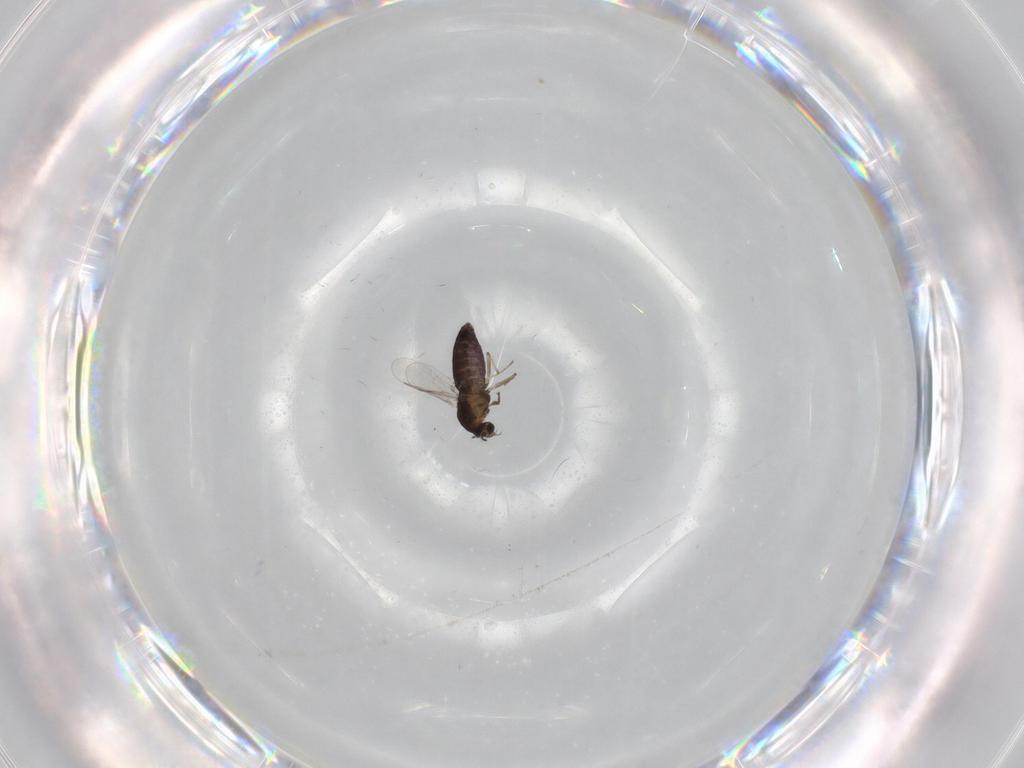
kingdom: Animalia
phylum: Arthropoda
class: Insecta
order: Diptera
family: Chironomidae
